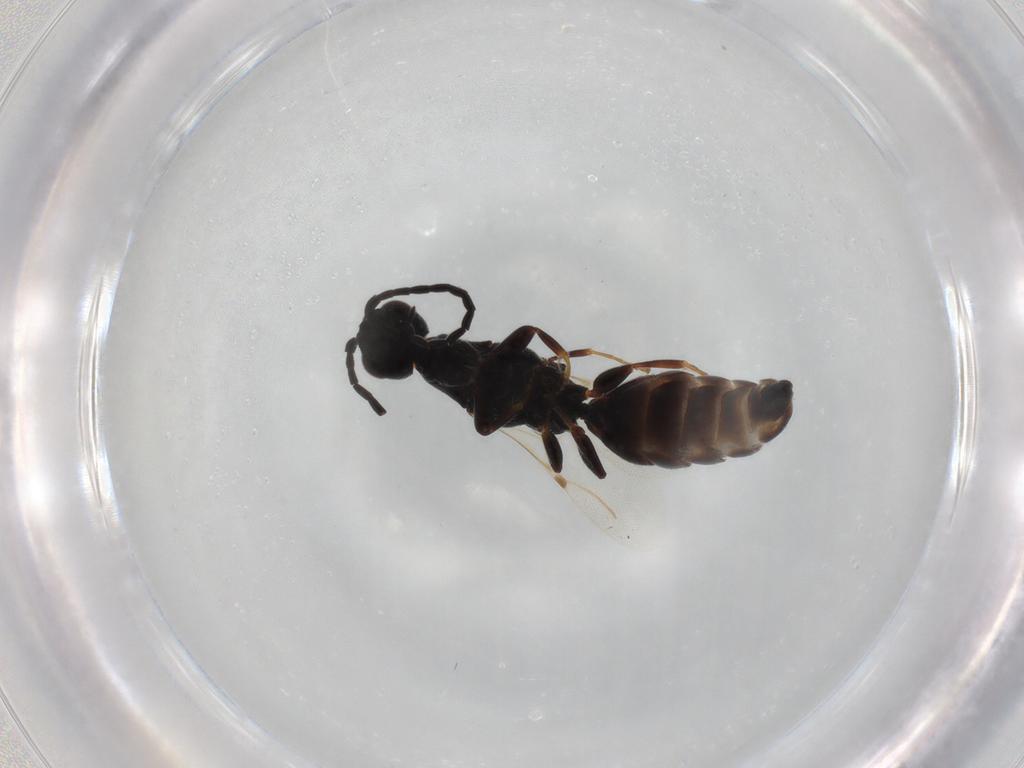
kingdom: Animalia
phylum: Arthropoda
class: Insecta
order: Hymenoptera
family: Bethylidae
